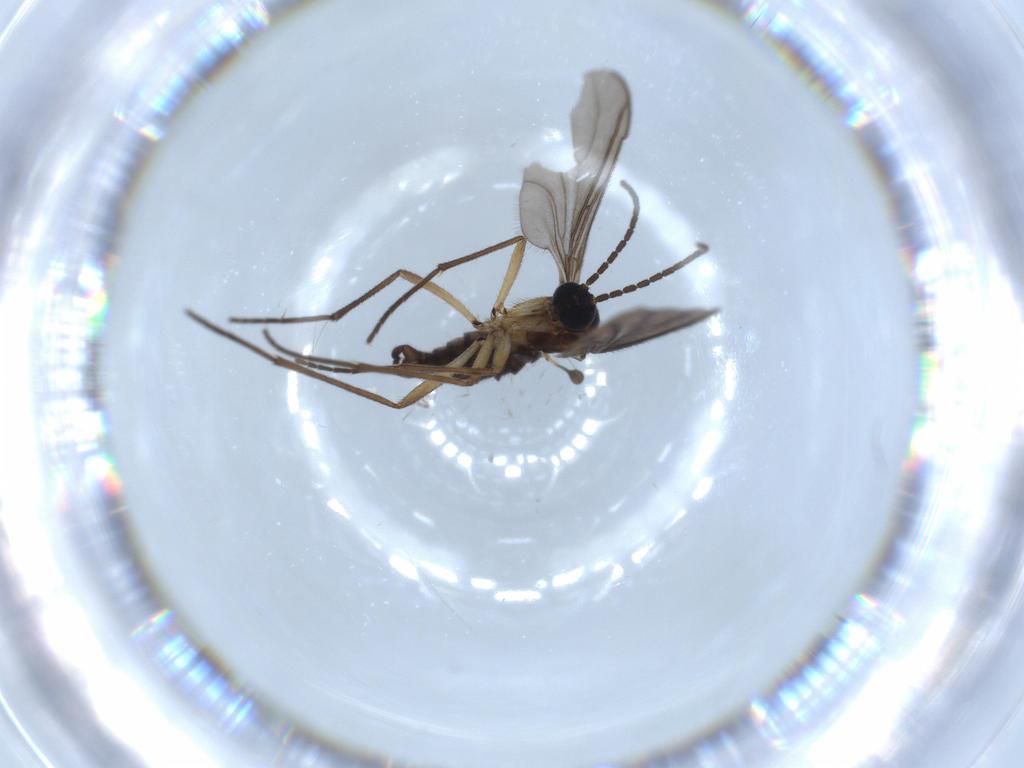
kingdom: Animalia
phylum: Arthropoda
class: Insecta
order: Diptera
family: Sciaridae
